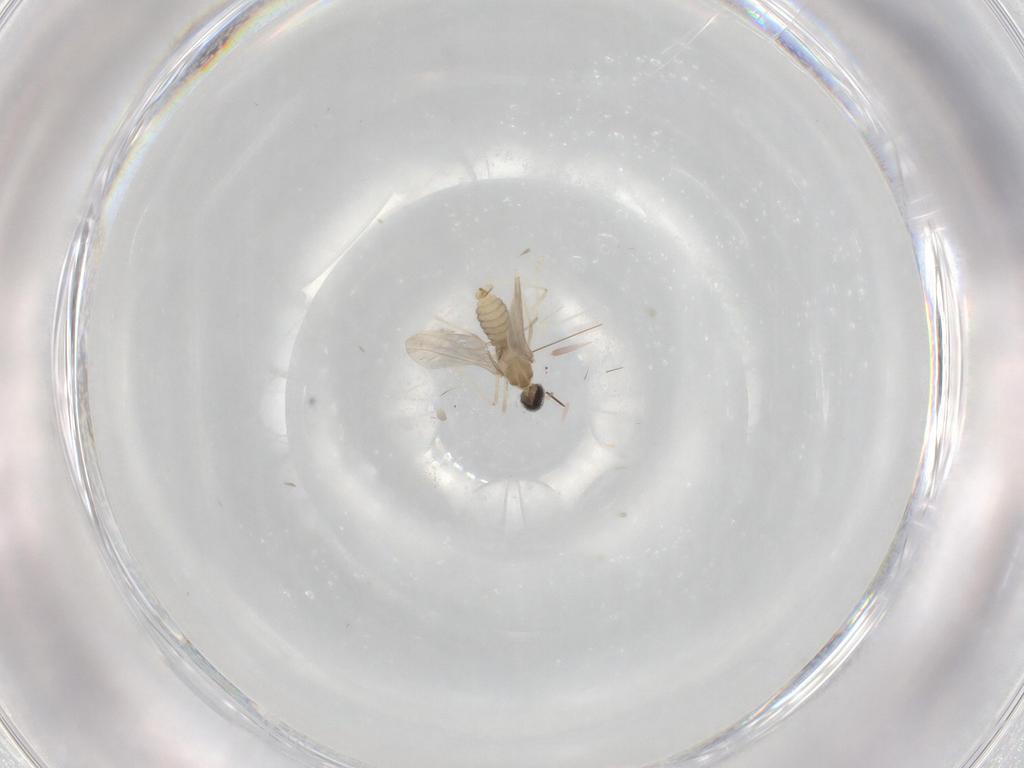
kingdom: Animalia
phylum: Arthropoda
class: Insecta
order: Diptera
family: Cecidomyiidae
